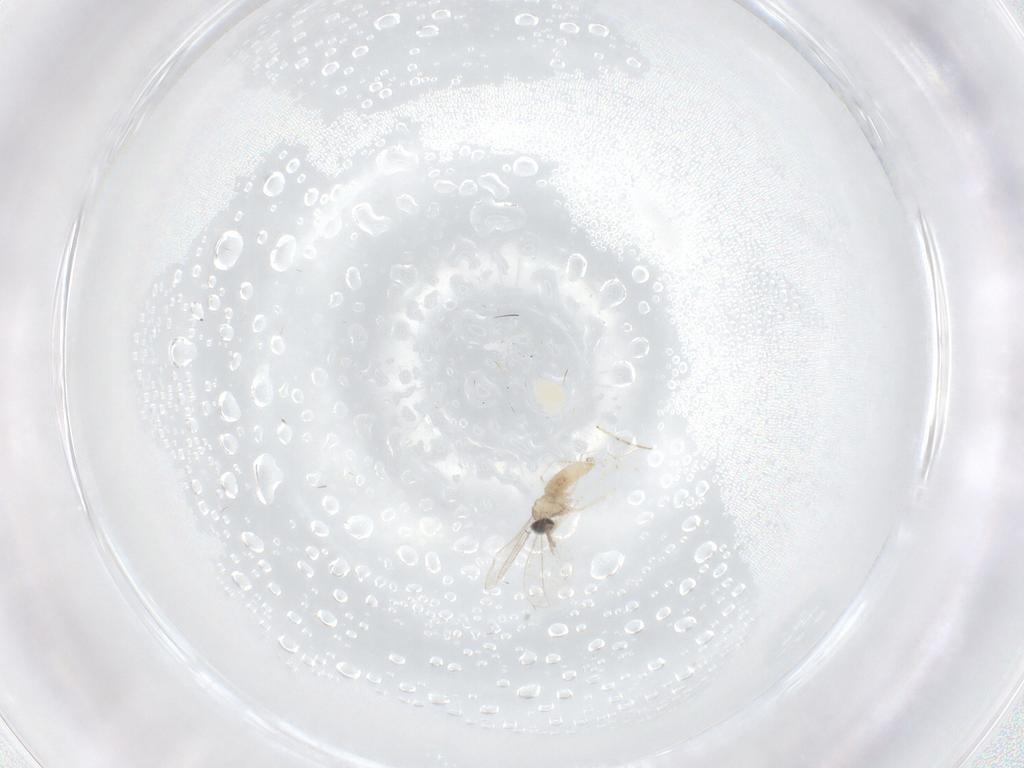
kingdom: Animalia
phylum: Arthropoda
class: Insecta
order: Diptera
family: Cecidomyiidae
